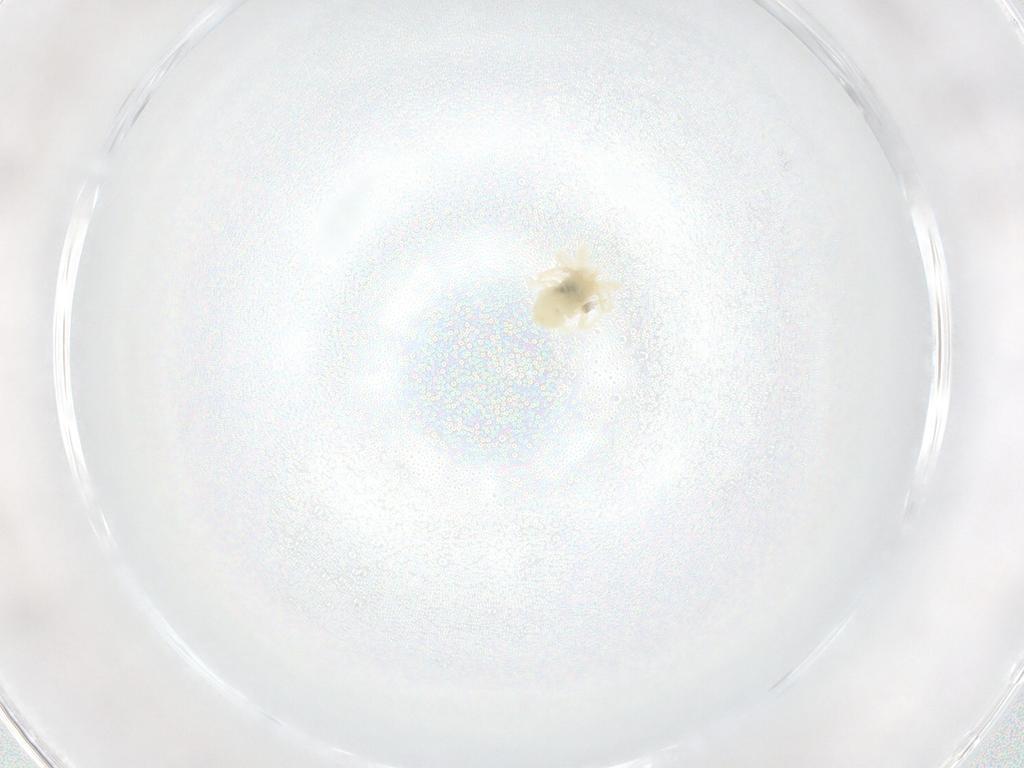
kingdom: Animalia
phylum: Arthropoda
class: Arachnida
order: Trombidiformes
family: Anystidae
